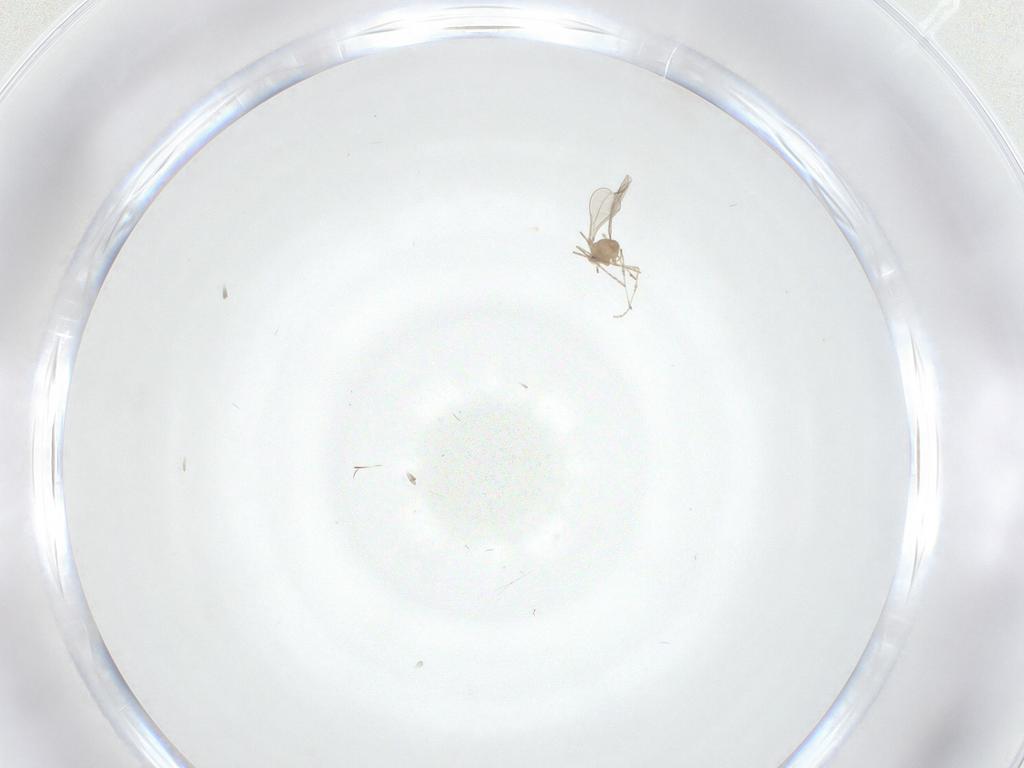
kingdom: Animalia
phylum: Arthropoda
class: Insecta
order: Diptera
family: Cecidomyiidae
